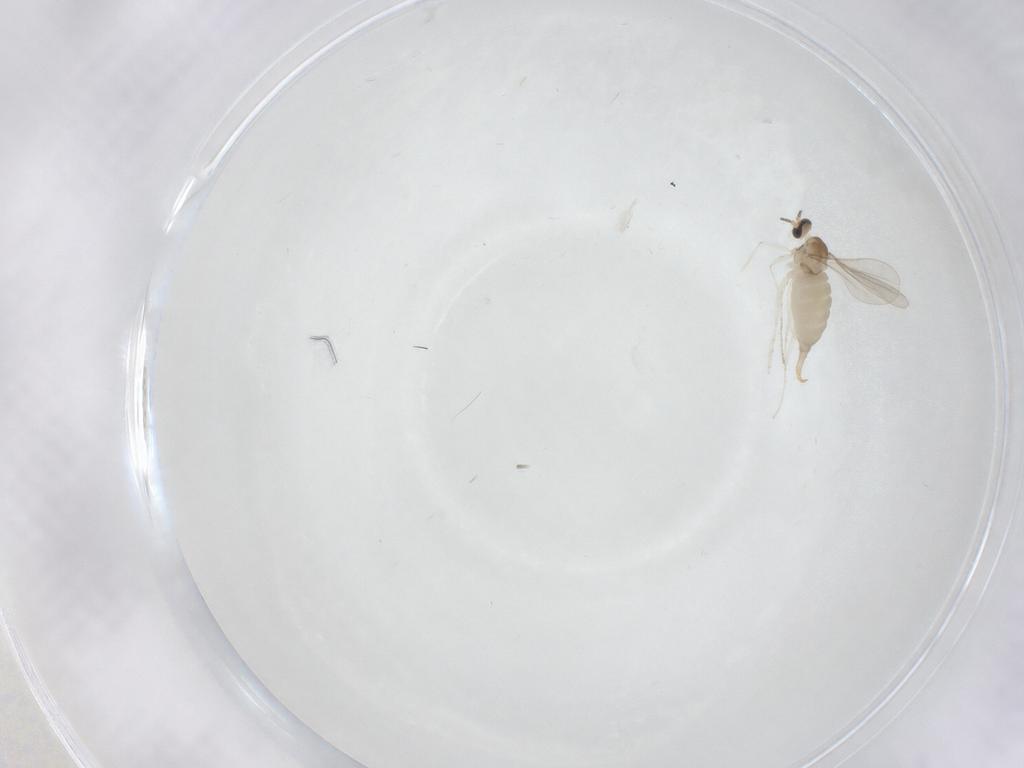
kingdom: Animalia
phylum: Arthropoda
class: Insecta
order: Diptera
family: Cecidomyiidae
